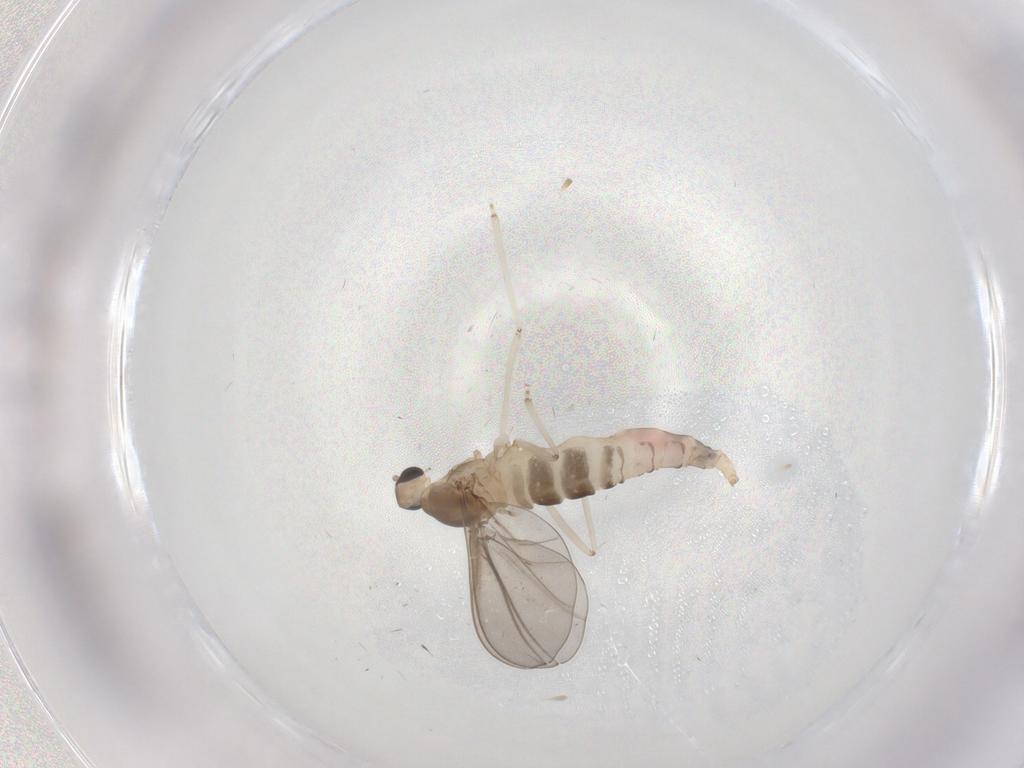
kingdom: Animalia
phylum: Arthropoda
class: Insecta
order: Diptera
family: Cecidomyiidae
